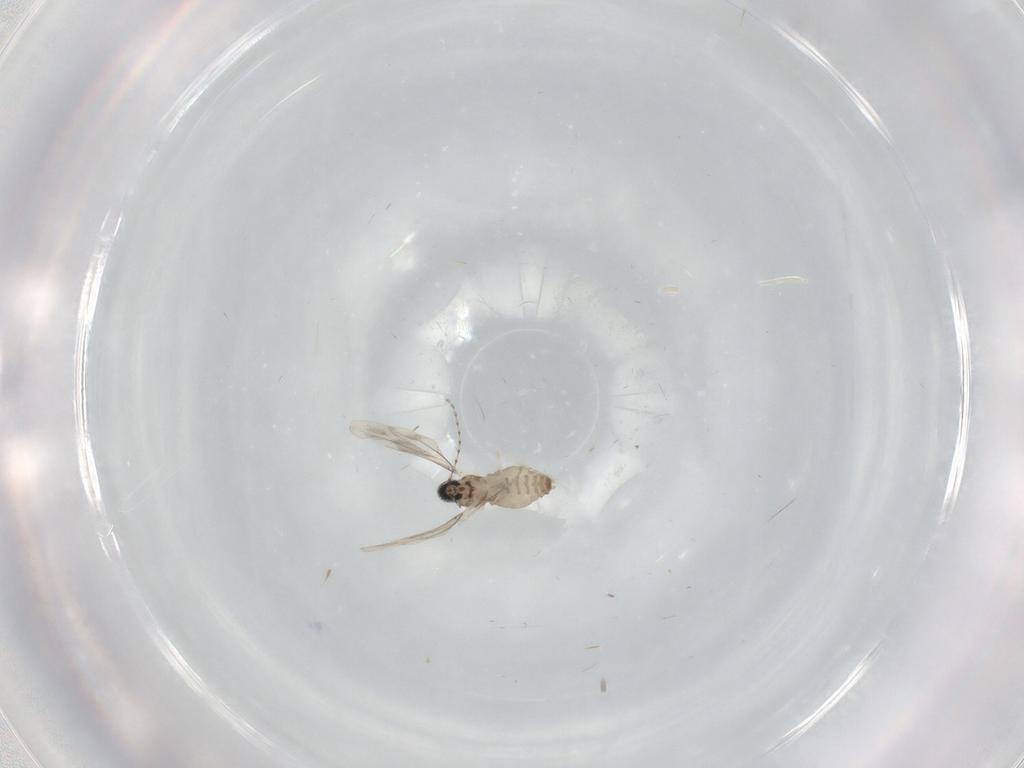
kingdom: Animalia
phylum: Arthropoda
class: Insecta
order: Diptera
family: Cecidomyiidae
